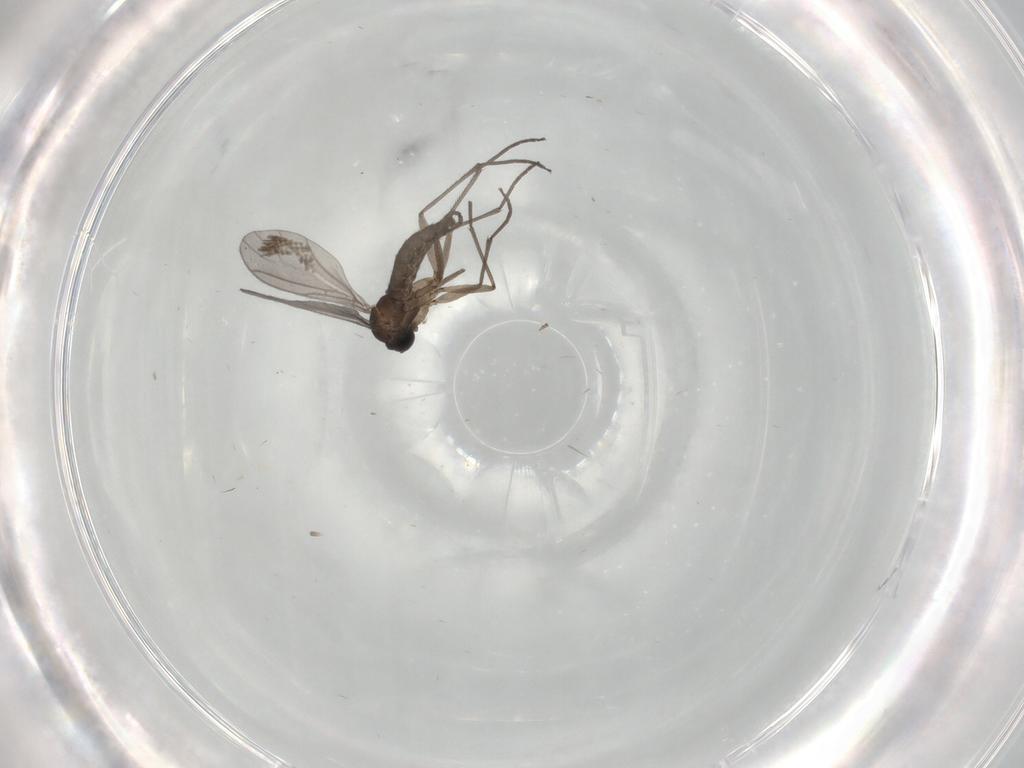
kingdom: Animalia
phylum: Arthropoda
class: Insecta
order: Diptera
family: Sciaridae
